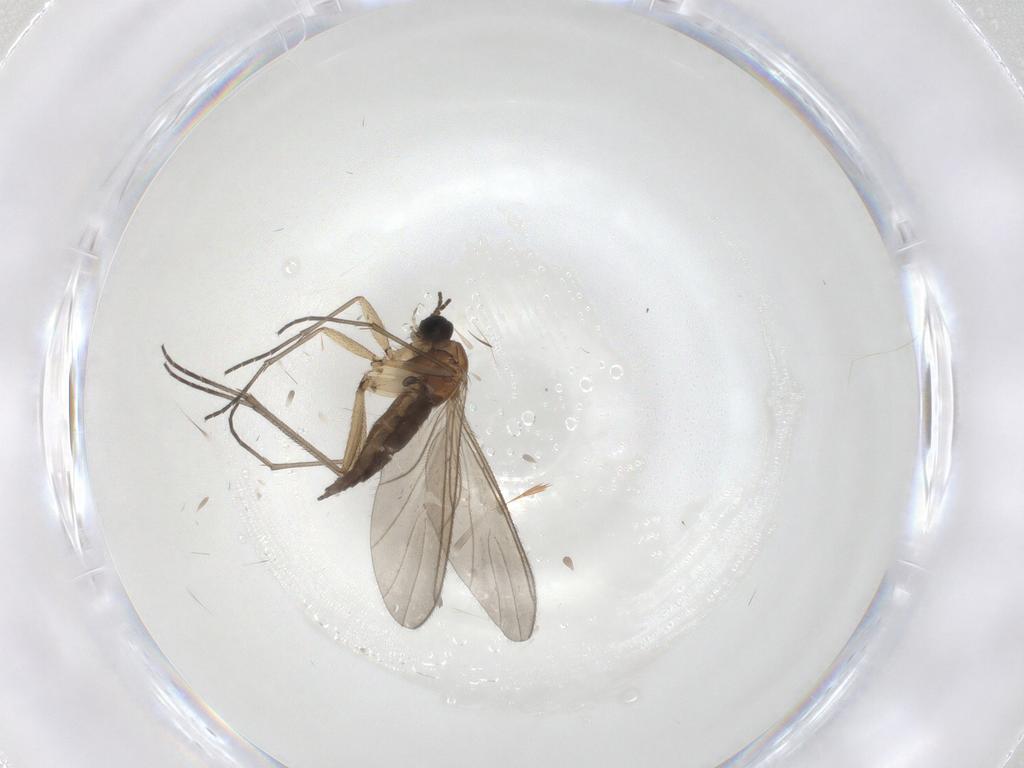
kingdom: Animalia
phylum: Arthropoda
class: Insecta
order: Diptera
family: Sciaridae
